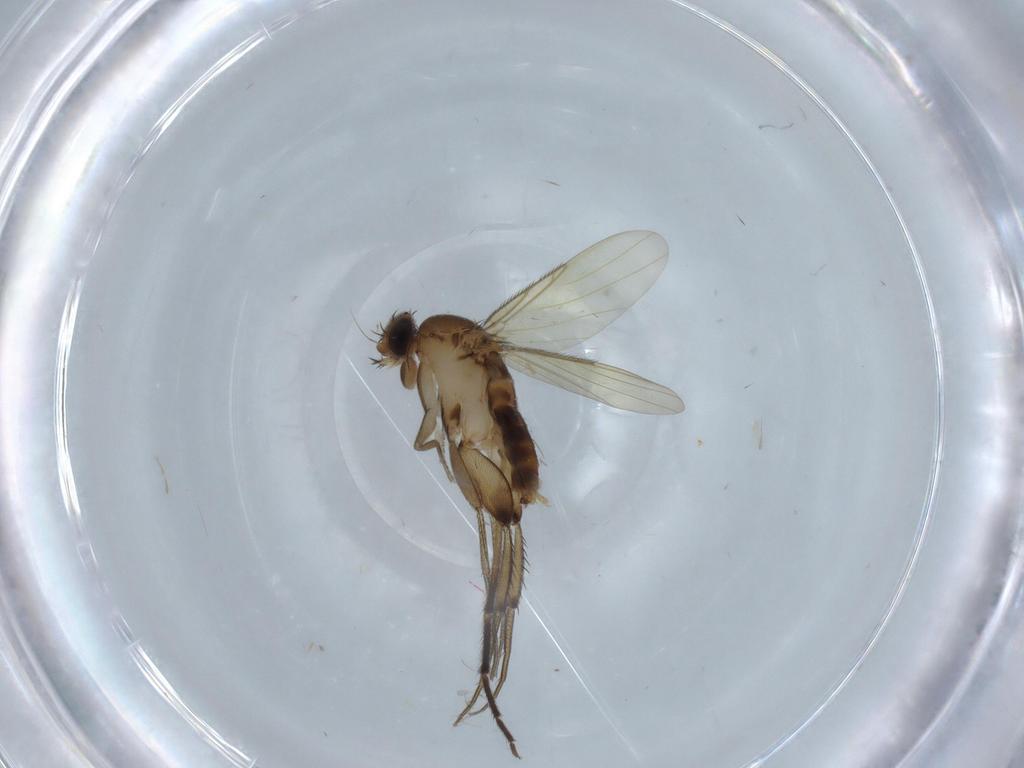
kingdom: Animalia
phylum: Arthropoda
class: Insecta
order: Diptera
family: Phoridae
